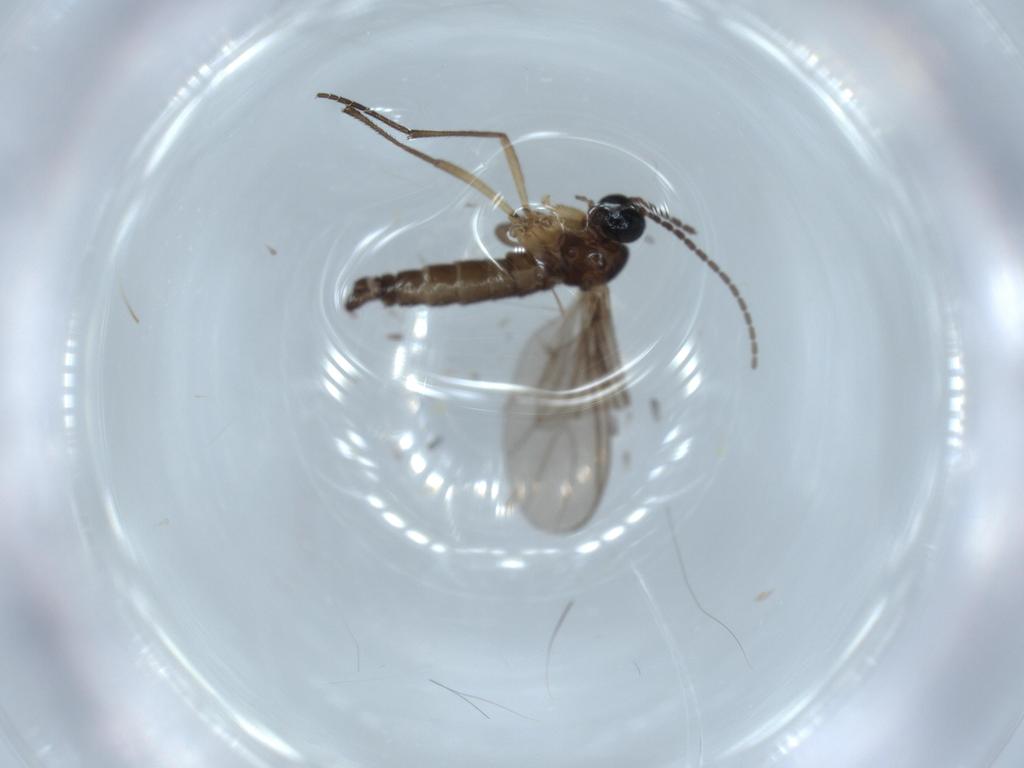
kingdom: Animalia
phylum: Arthropoda
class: Insecta
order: Diptera
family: Sciaridae
